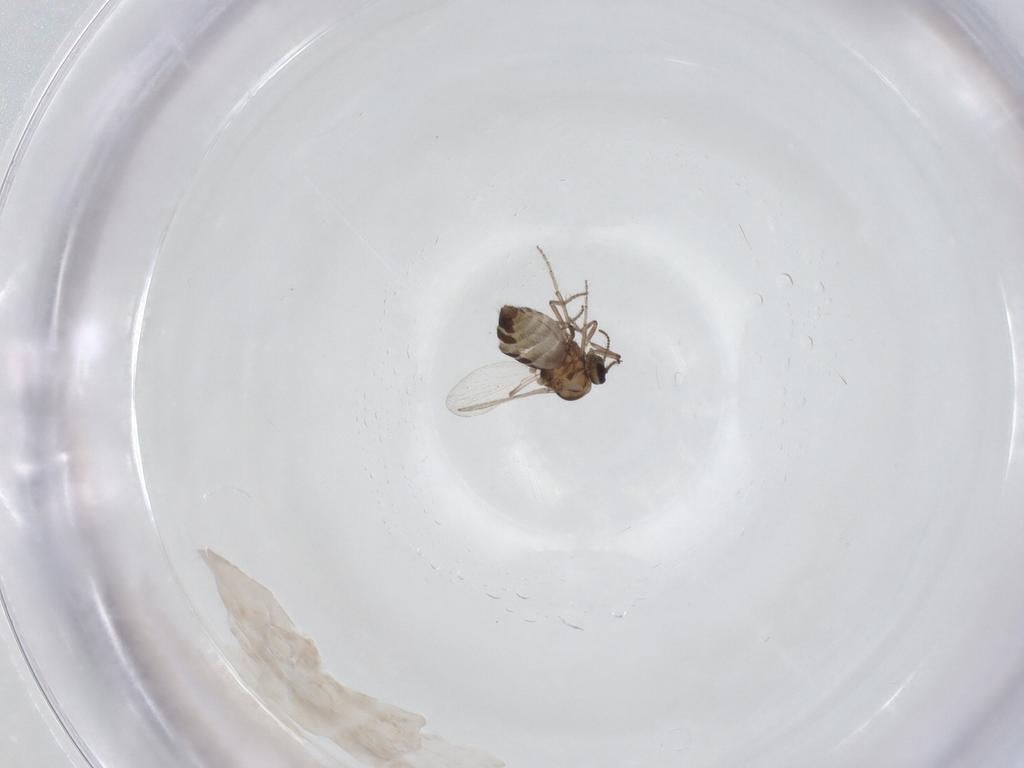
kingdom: Animalia
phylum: Arthropoda
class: Insecta
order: Diptera
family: Ceratopogonidae
